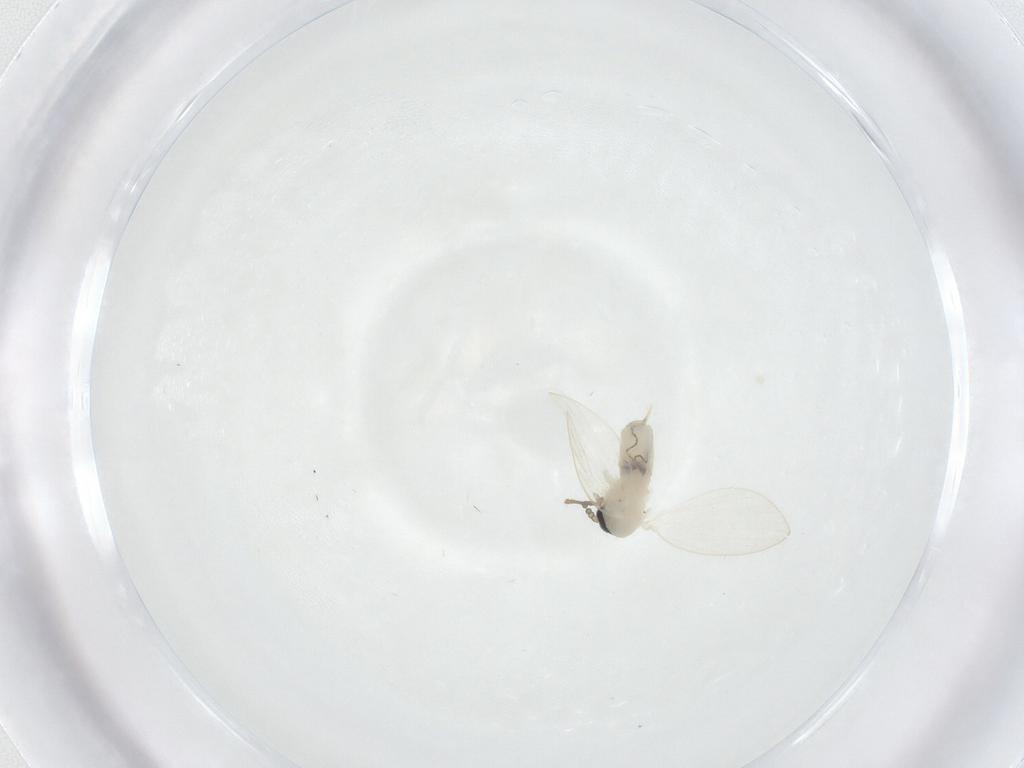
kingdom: Animalia
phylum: Arthropoda
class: Insecta
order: Diptera
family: Psychodidae
